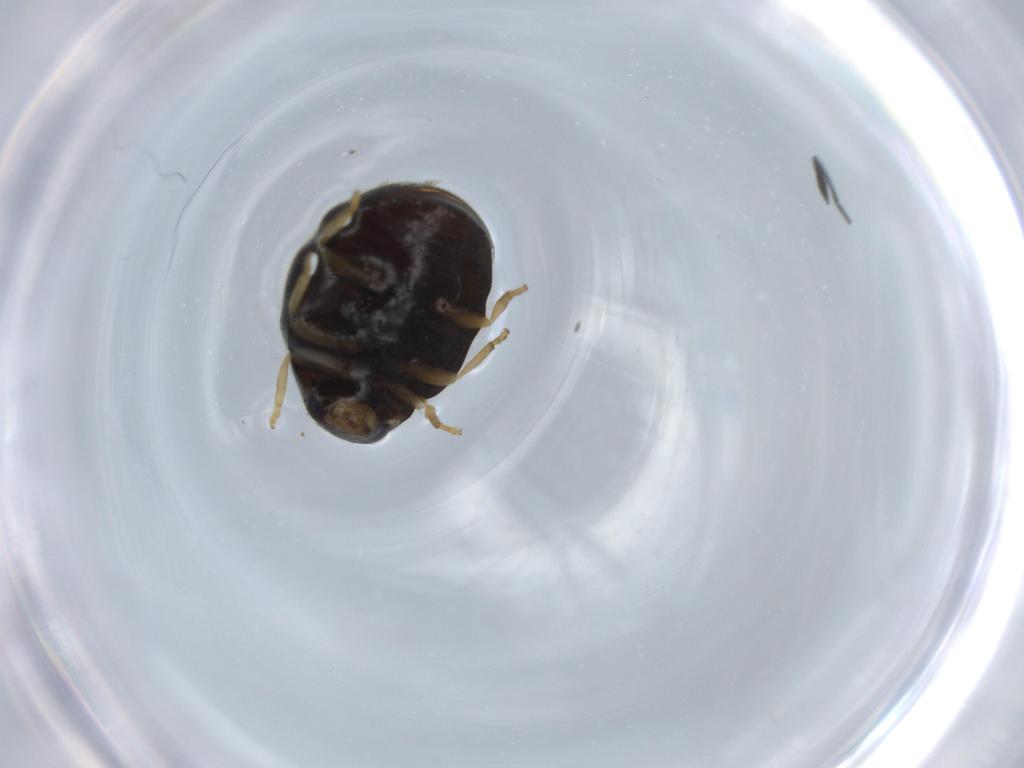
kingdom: Animalia
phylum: Arthropoda
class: Insecta
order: Coleoptera
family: Coccinellidae
